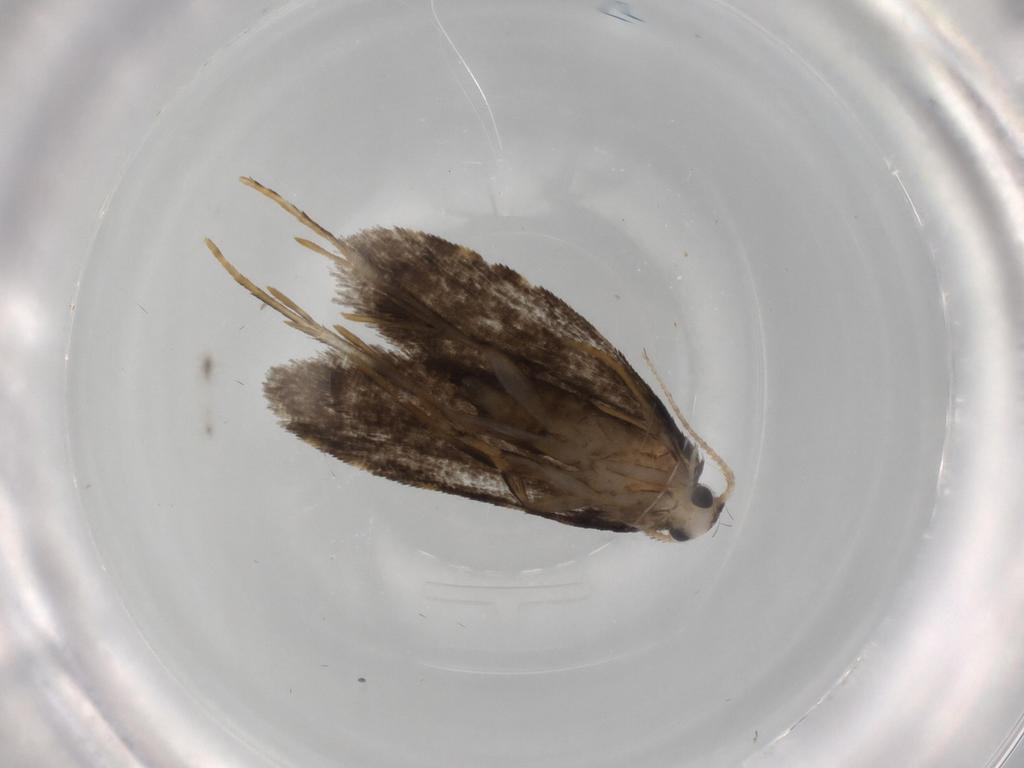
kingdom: Animalia
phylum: Arthropoda
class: Insecta
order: Lepidoptera
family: Psychidae
